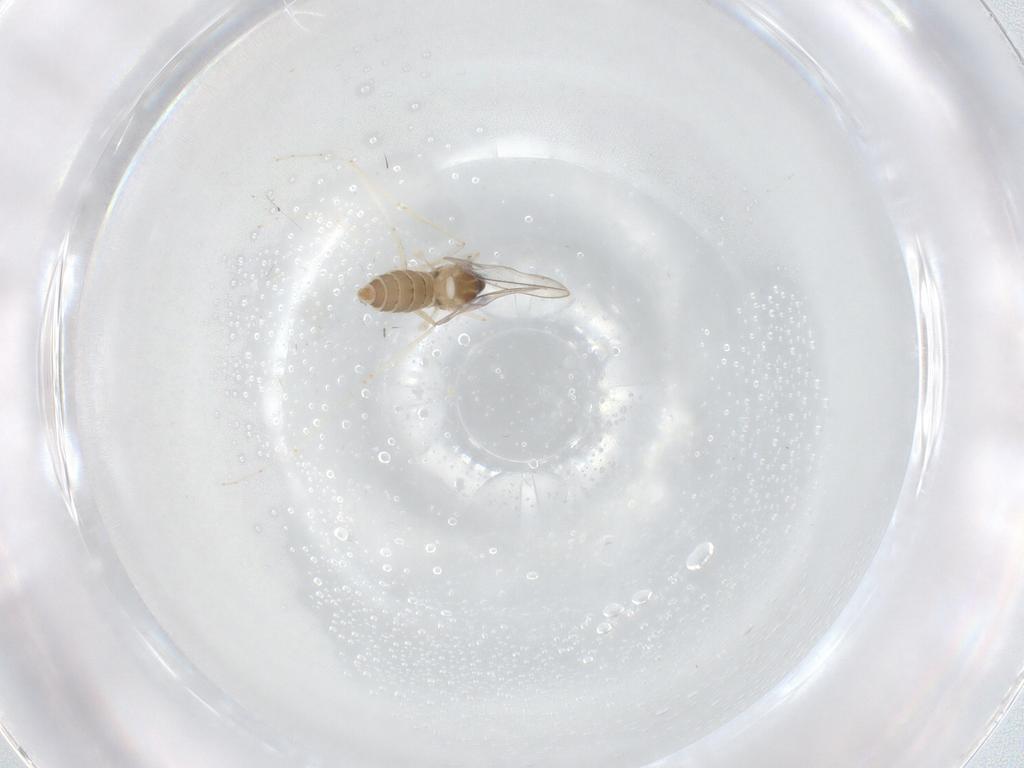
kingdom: Animalia
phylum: Arthropoda
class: Insecta
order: Diptera
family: Cecidomyiidae
